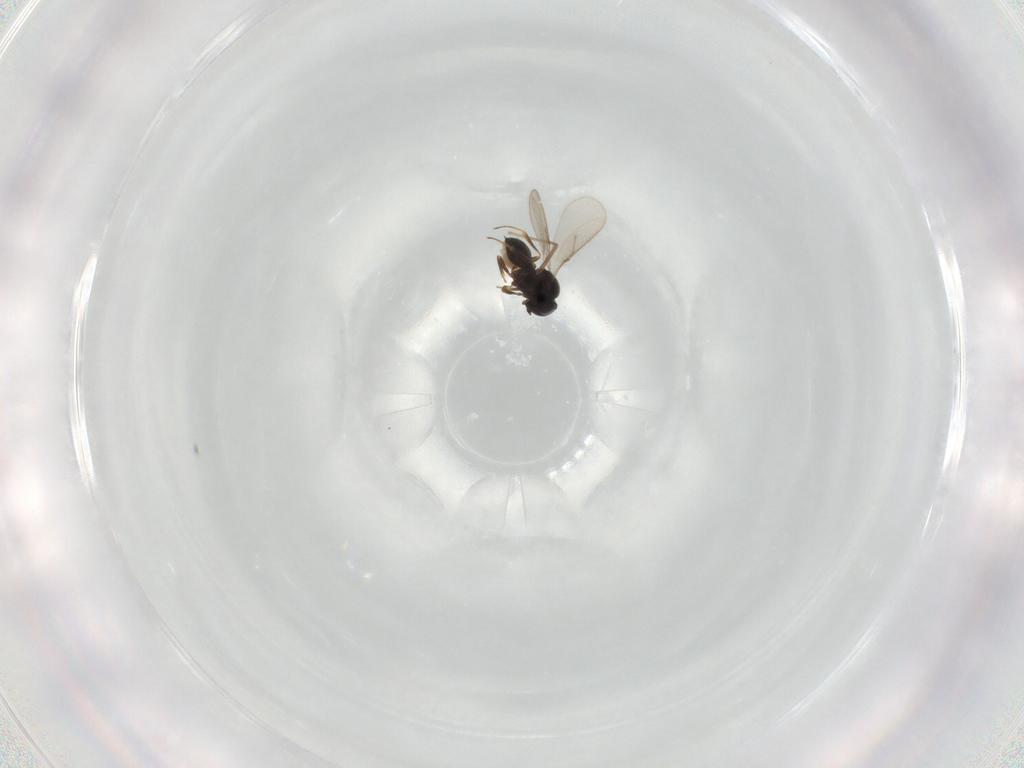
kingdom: Animalia
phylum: Arthropoda
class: Insecta
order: Hymenoptera
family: Scelionidae
